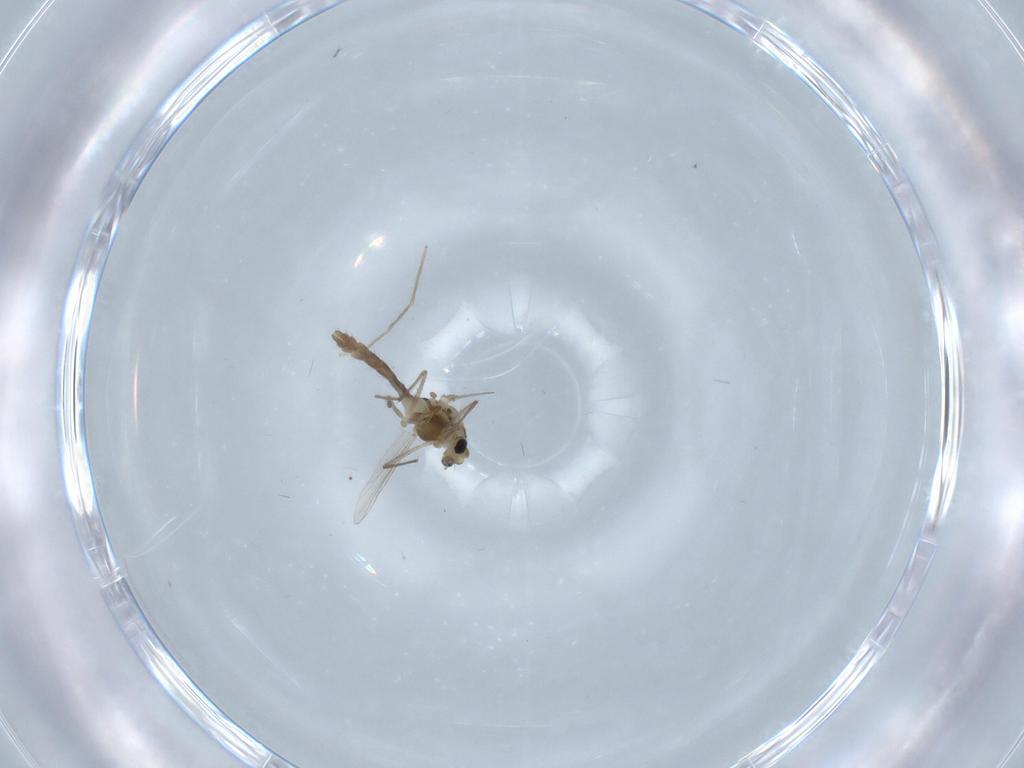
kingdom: Animalia
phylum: Arthropoda
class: Insecta
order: Diptera
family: Chironomidae
